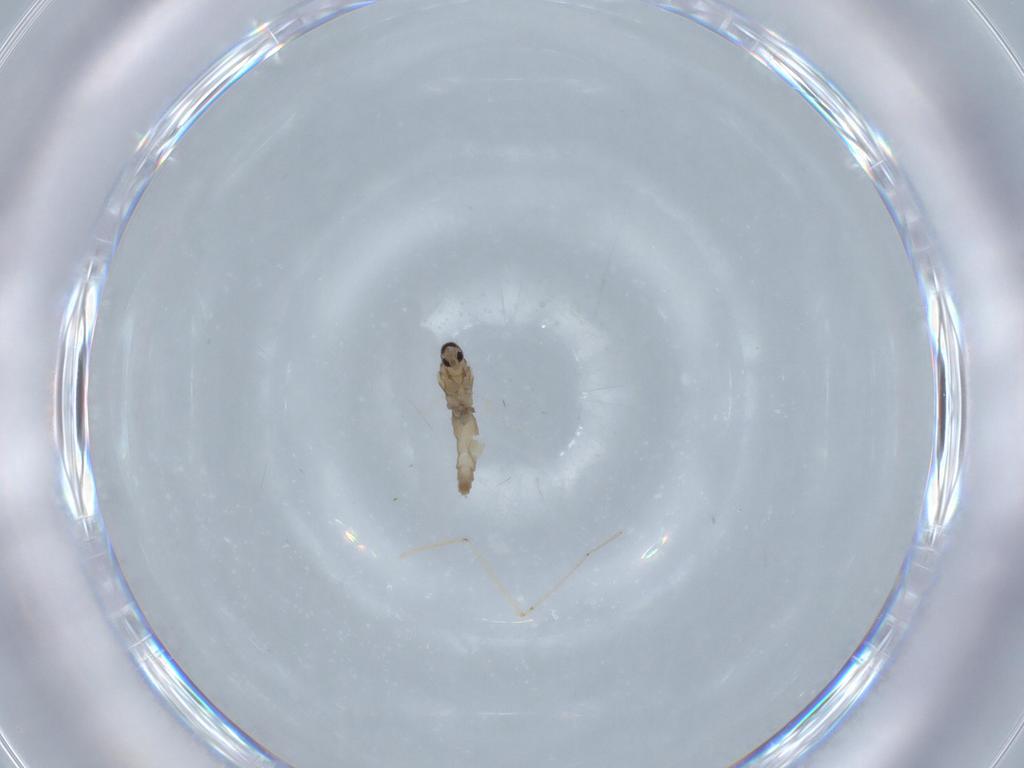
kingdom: Animalia
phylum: Arthropoda
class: Insecta
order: Diptera
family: Cecidomyiidae
